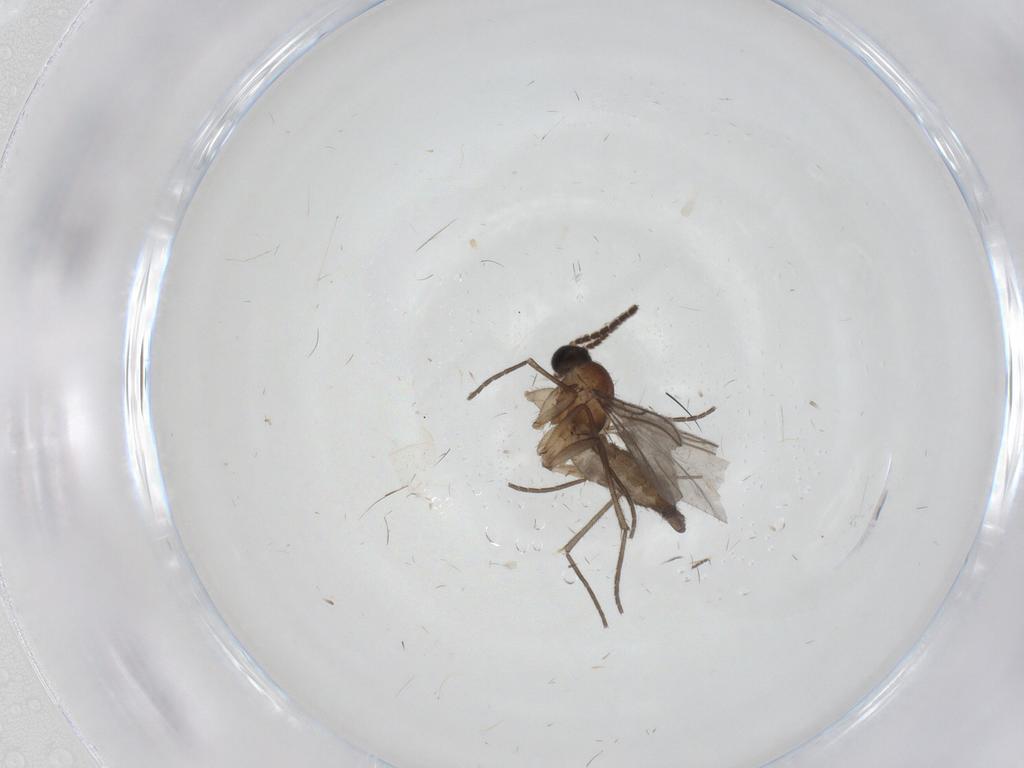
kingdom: Animalia
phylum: Arthropoda
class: Insecta
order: Diptera
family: Sciaridae
